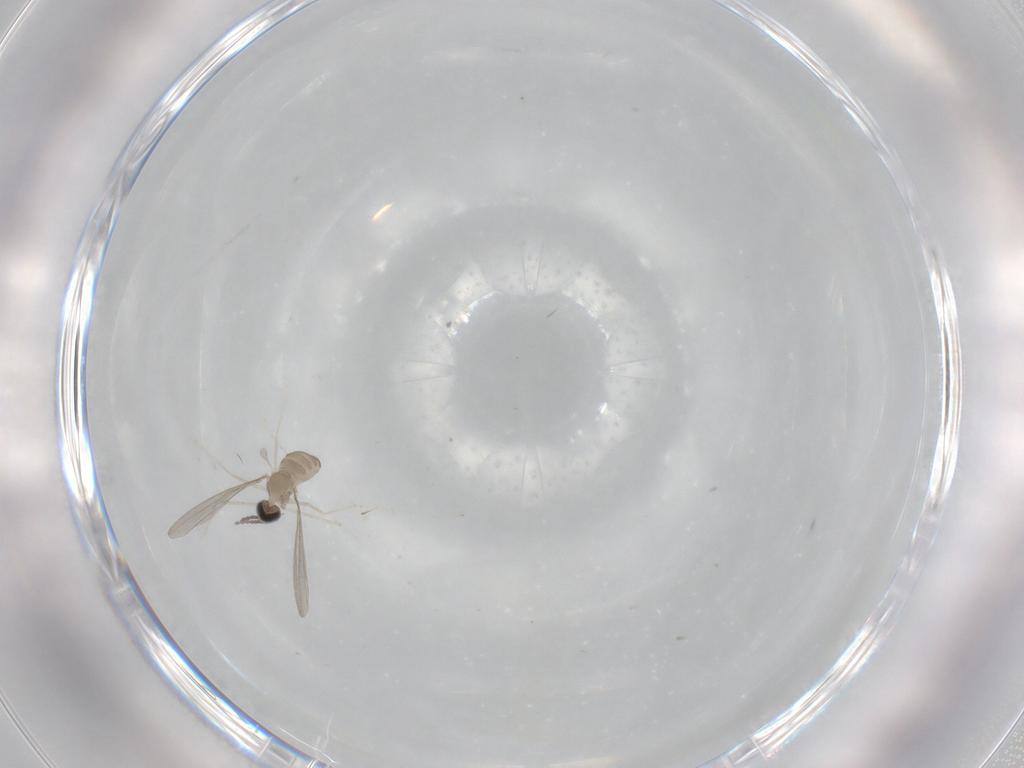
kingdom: Animalia
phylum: Arthropoda
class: Insecta
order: Diptera
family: Cecidomyiidae
